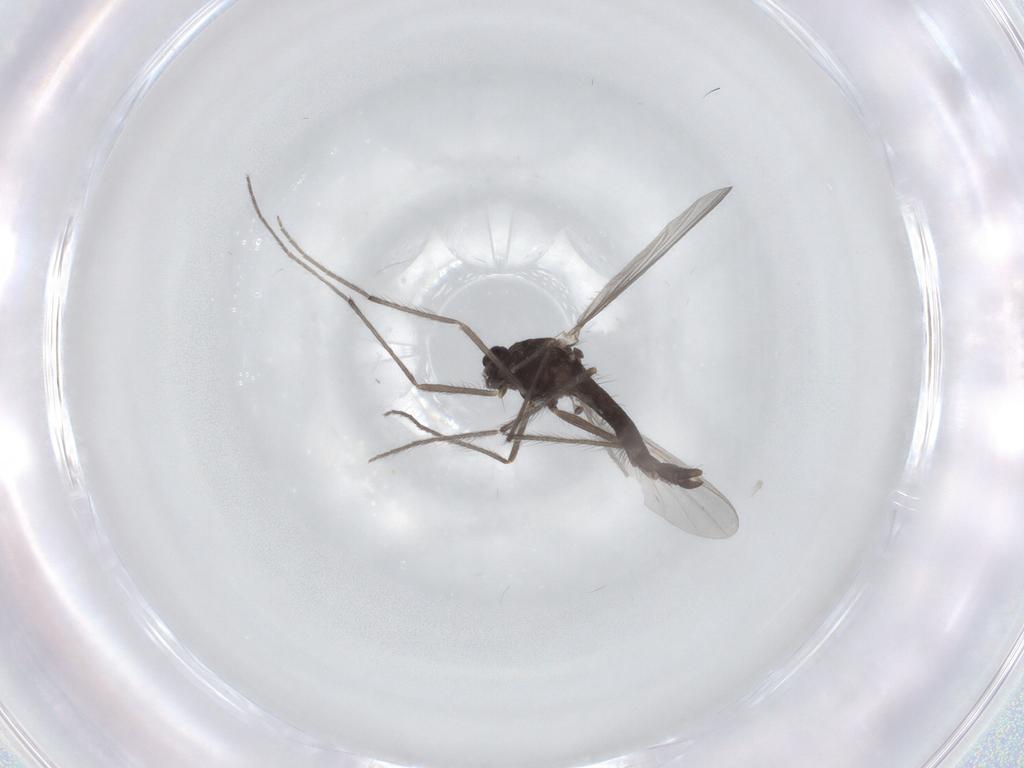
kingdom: Animalia
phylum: Arthropoda
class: Insecta
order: Diptera
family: Chironomidae
